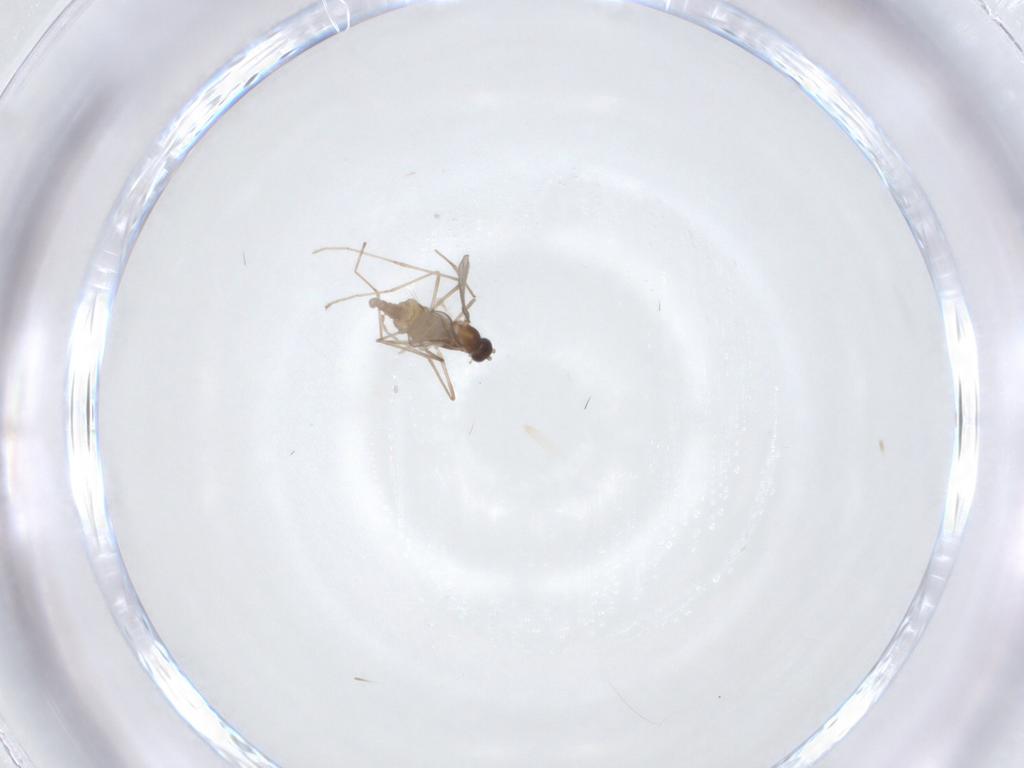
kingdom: Animalia
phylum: Arthropoda
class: Insecta
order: Diptera
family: Cecidomyiidae
